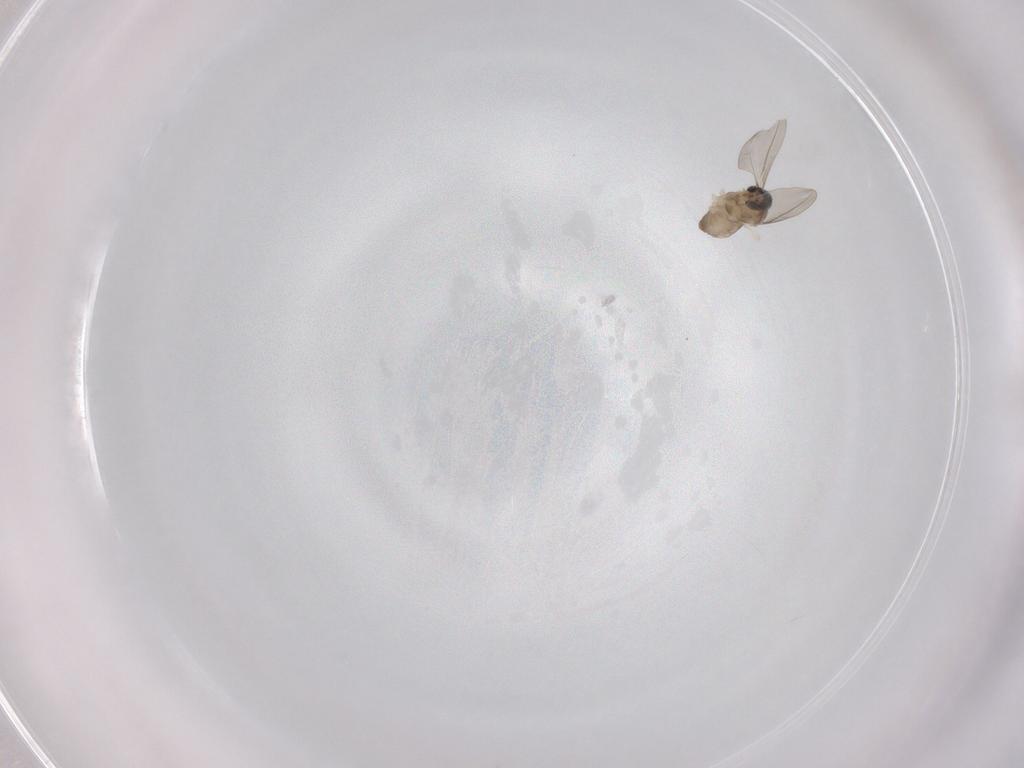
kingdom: Animalia
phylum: Arthropoda
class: Insecta
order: Diptera
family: Cecidomyiidae
